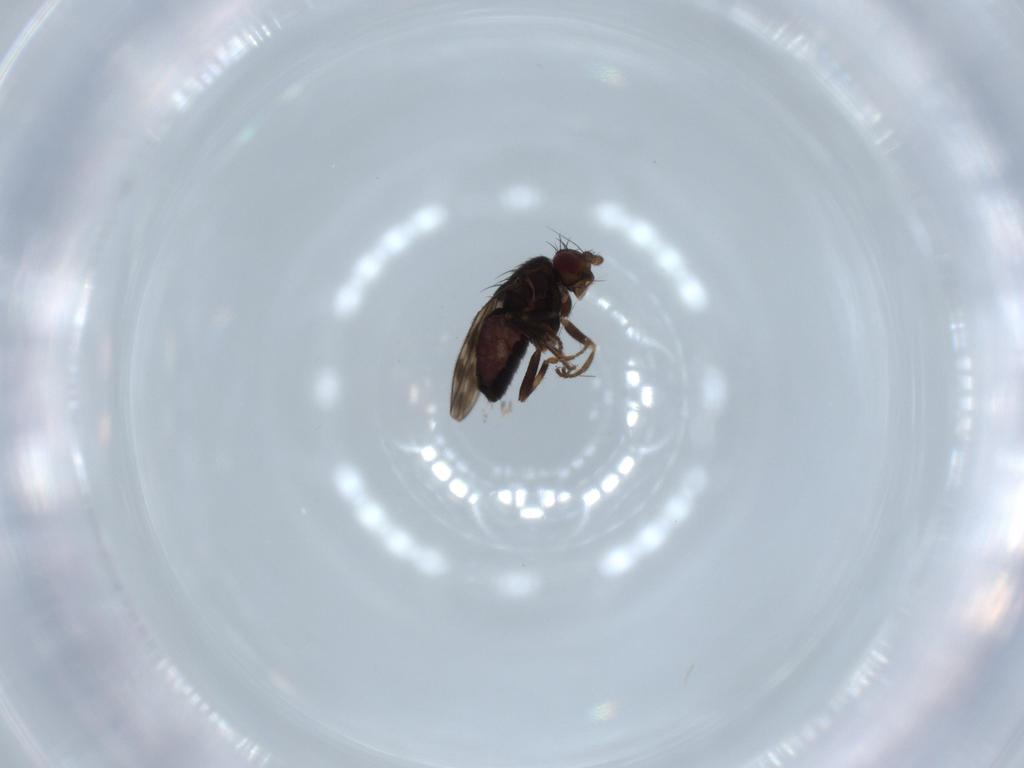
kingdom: Animalia
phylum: Arthropoda
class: Insecta
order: Diptera
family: Sphaeroceridae
